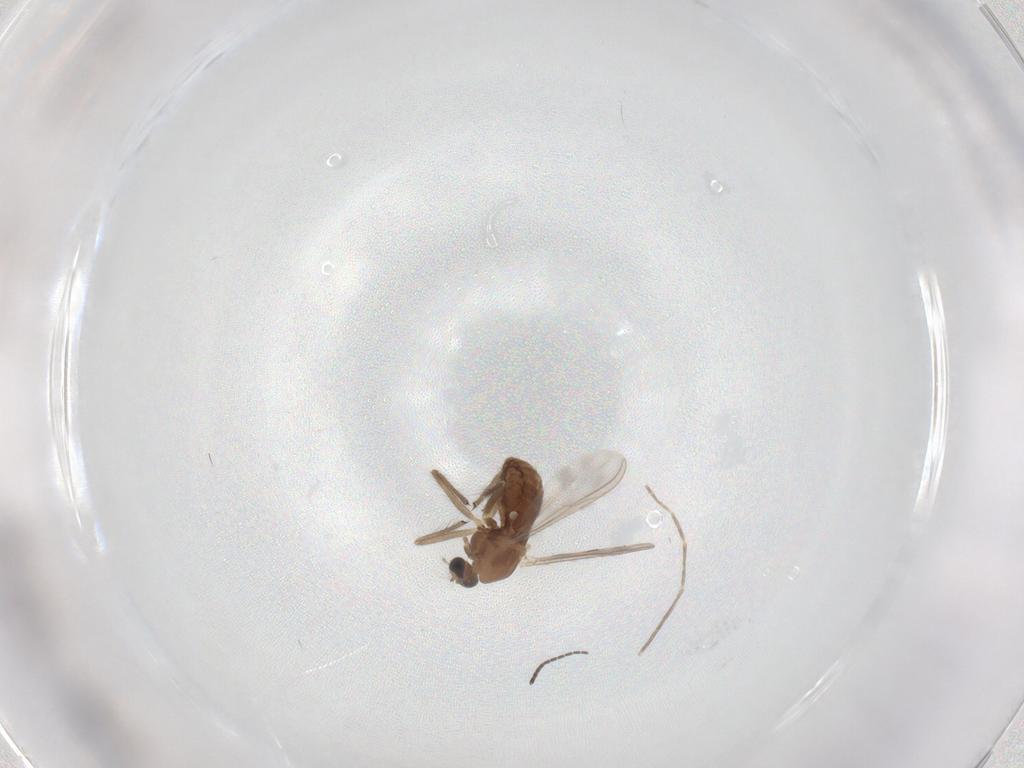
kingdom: Animalia
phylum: Arthropoda
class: Insecta
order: Diptera
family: Chironomidae
